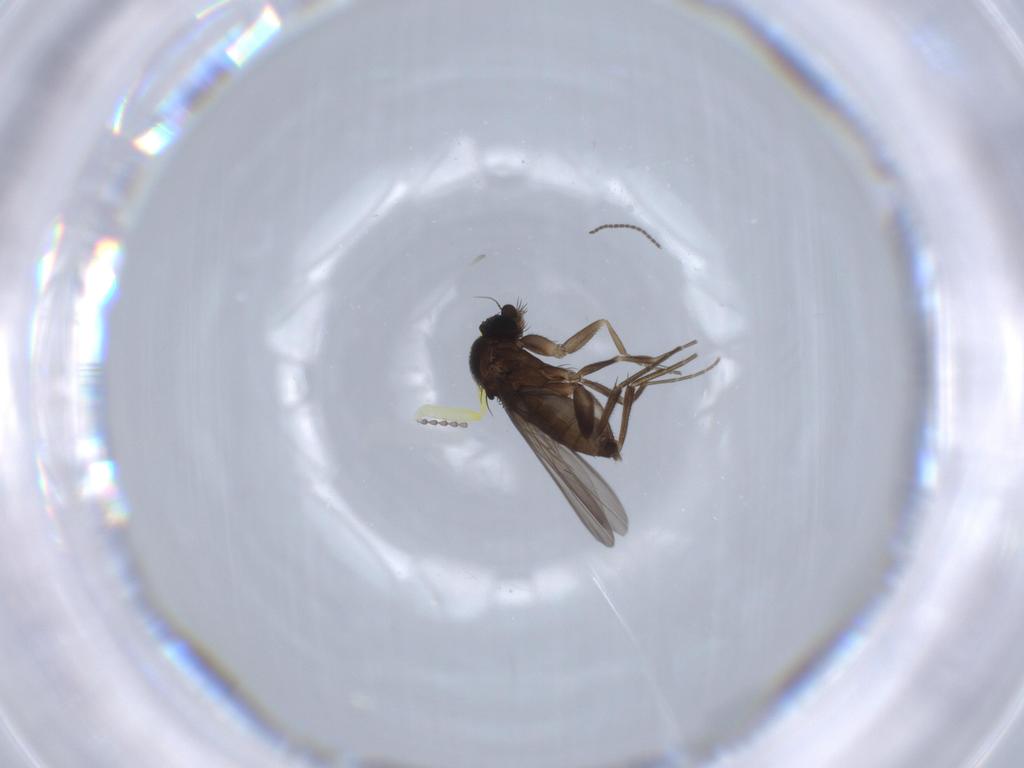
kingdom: Animalia
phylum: Arthropoda
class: Insecta
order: Diptera
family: Phoridae
